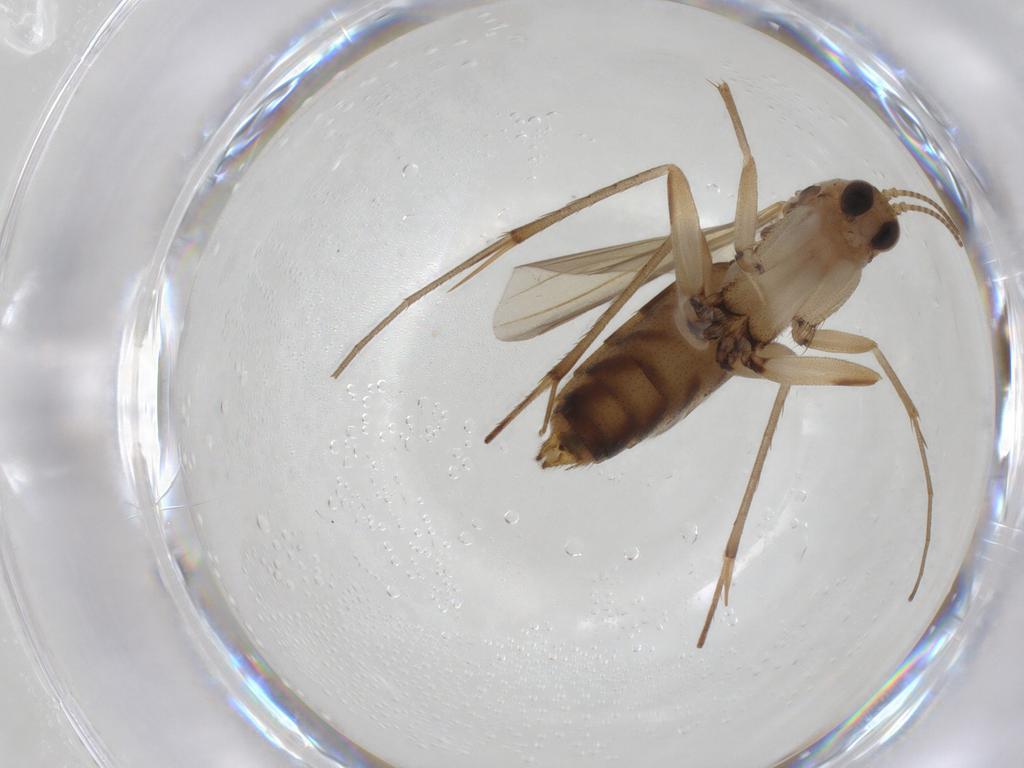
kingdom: Animalia
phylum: Arthropoda
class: Insecta
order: Diptera
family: Mycetophilidae
